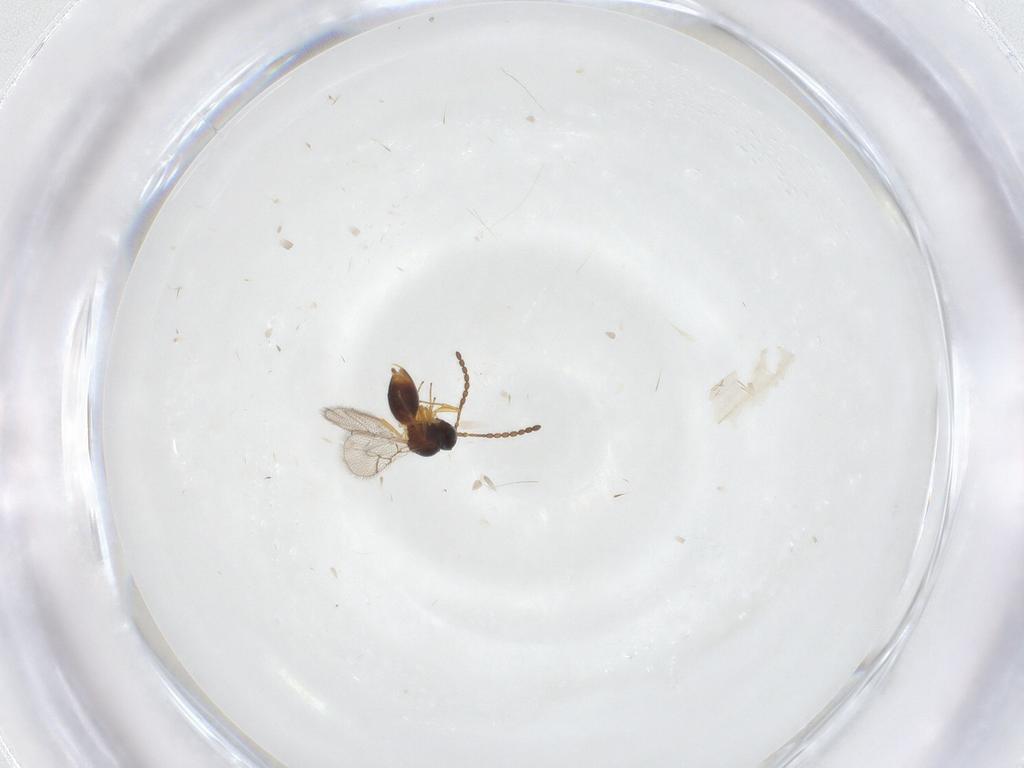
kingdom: Animalia
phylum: Arthropoda
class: Insecta
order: Hymenoptera
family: Figitidae
